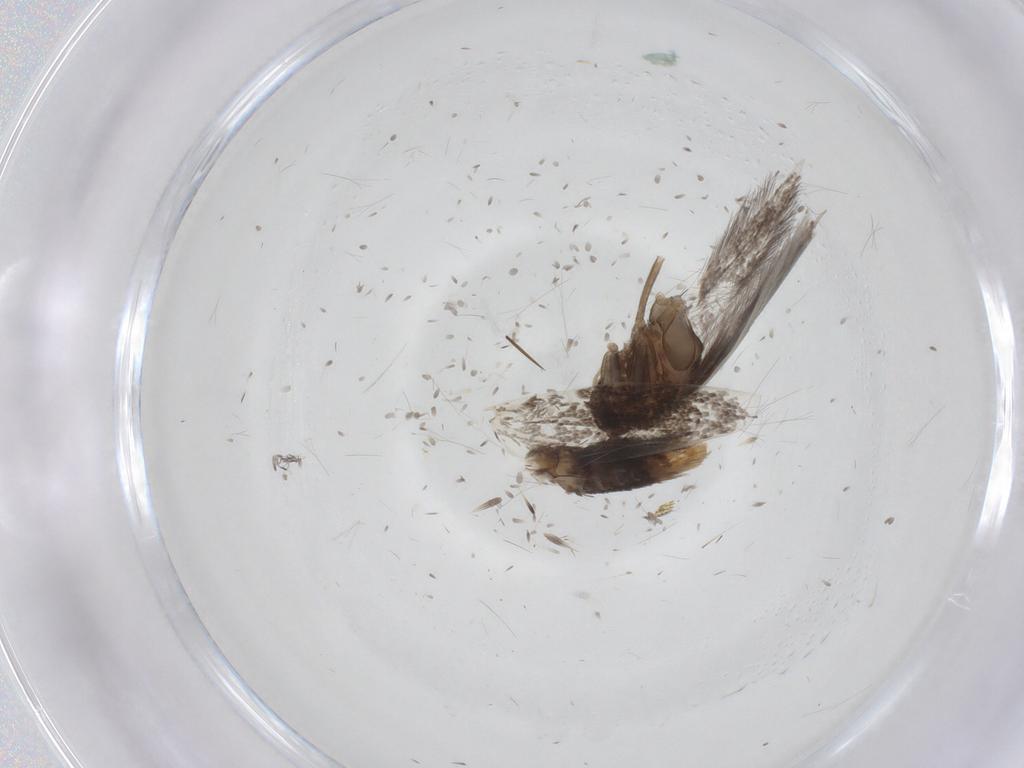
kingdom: Animalia
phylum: Arthropoda
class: Insecta
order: Lepidoptera
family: Elachistidae
